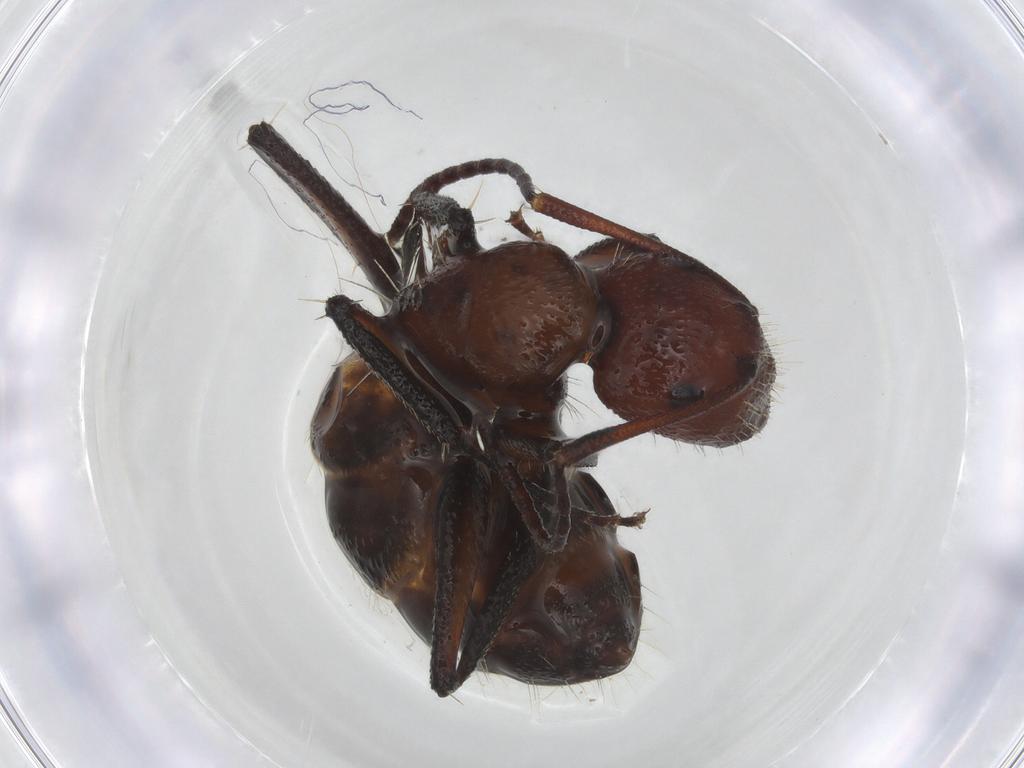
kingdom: Animalia
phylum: Arthropoda
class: Insecta
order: Hymenoptera
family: Formicidae
